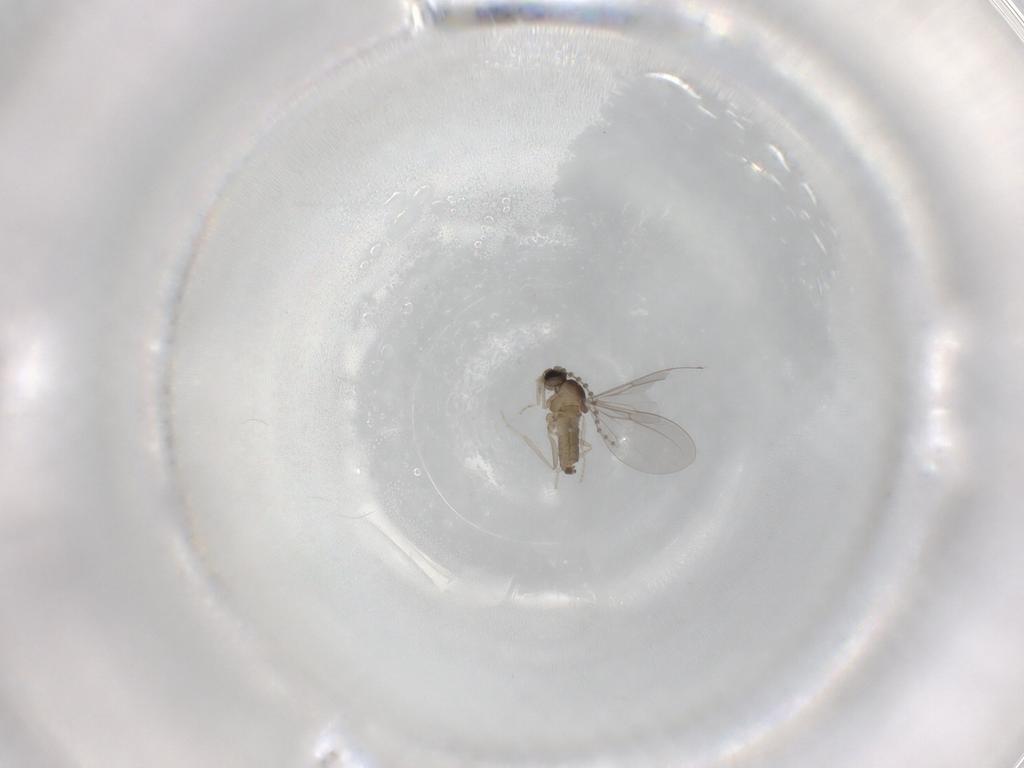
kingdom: Animalia
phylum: Arthropoda
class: Insecta
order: Diptera
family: Cecidomyiidae
